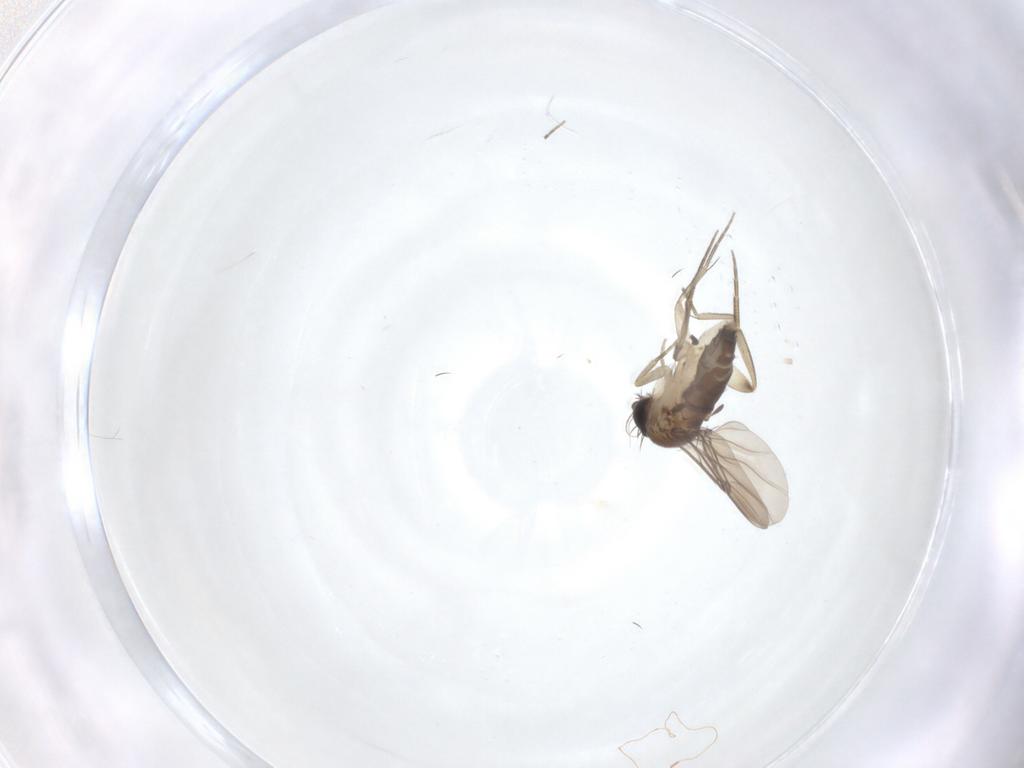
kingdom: Animalia
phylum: Arthropoda
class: Insecta
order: Diptera
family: Phoridae
